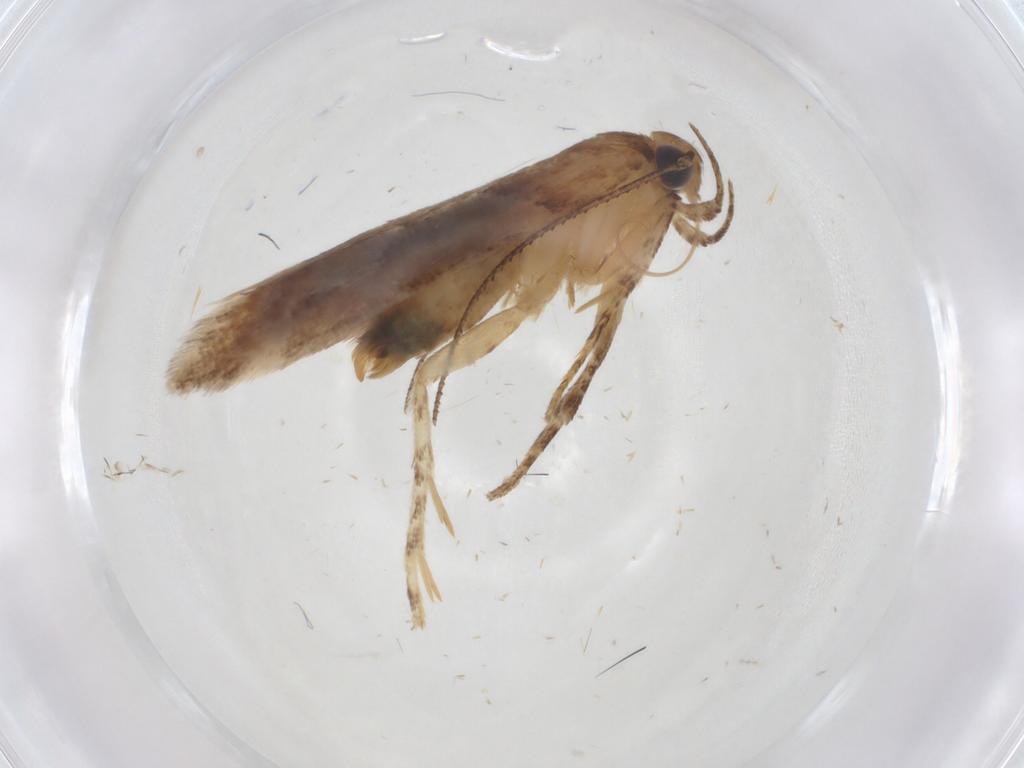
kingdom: Animalia
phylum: Arthropoda
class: Insecta
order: Lepidoptera
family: Gelechiidae
